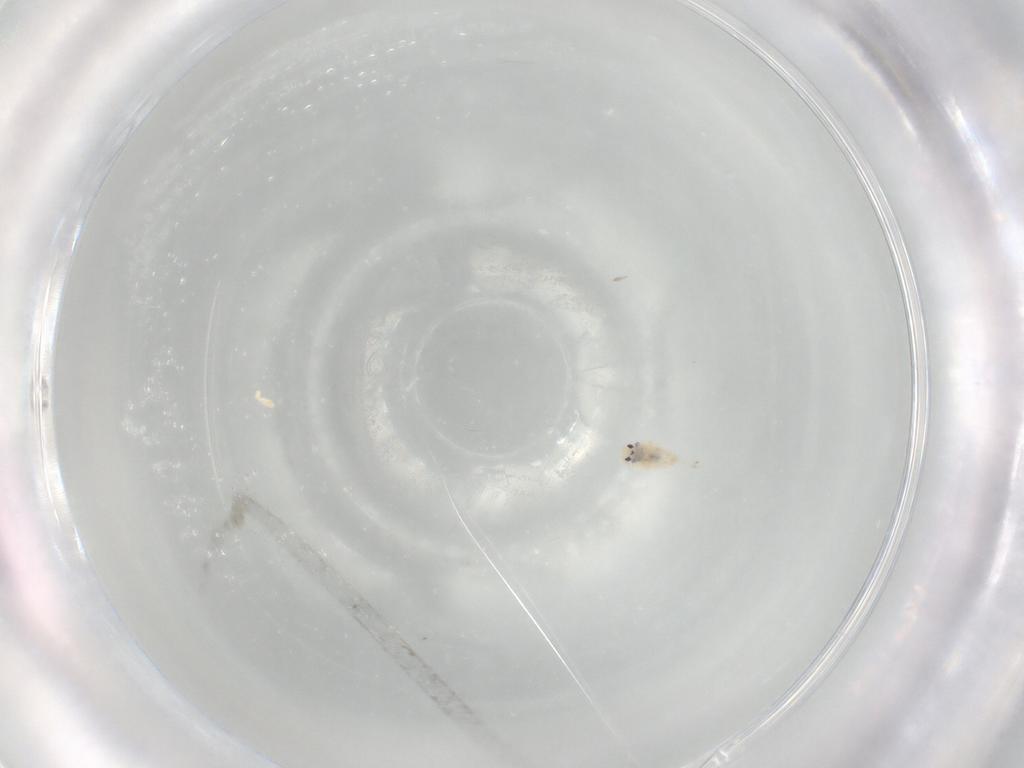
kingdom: Animalia
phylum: Arthropoda
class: Collembola
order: Entomobryomorpha
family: Entomobryidae
